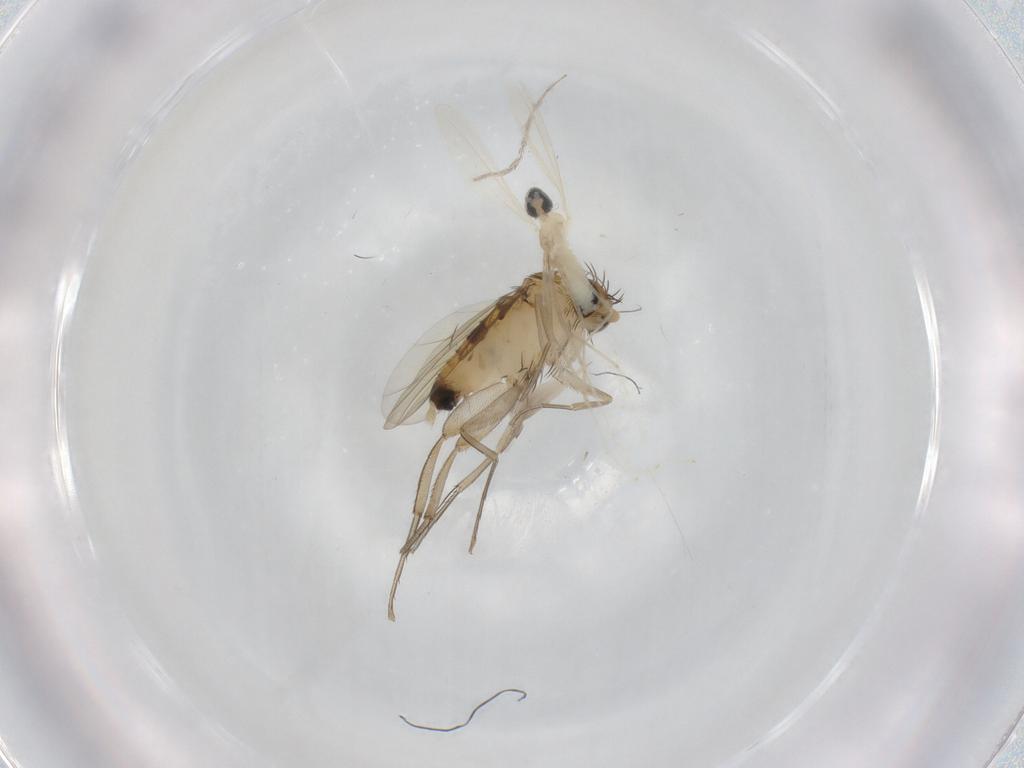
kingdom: Animalia
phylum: Arthropoda
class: Insecta
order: Diptera
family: Phoridae
